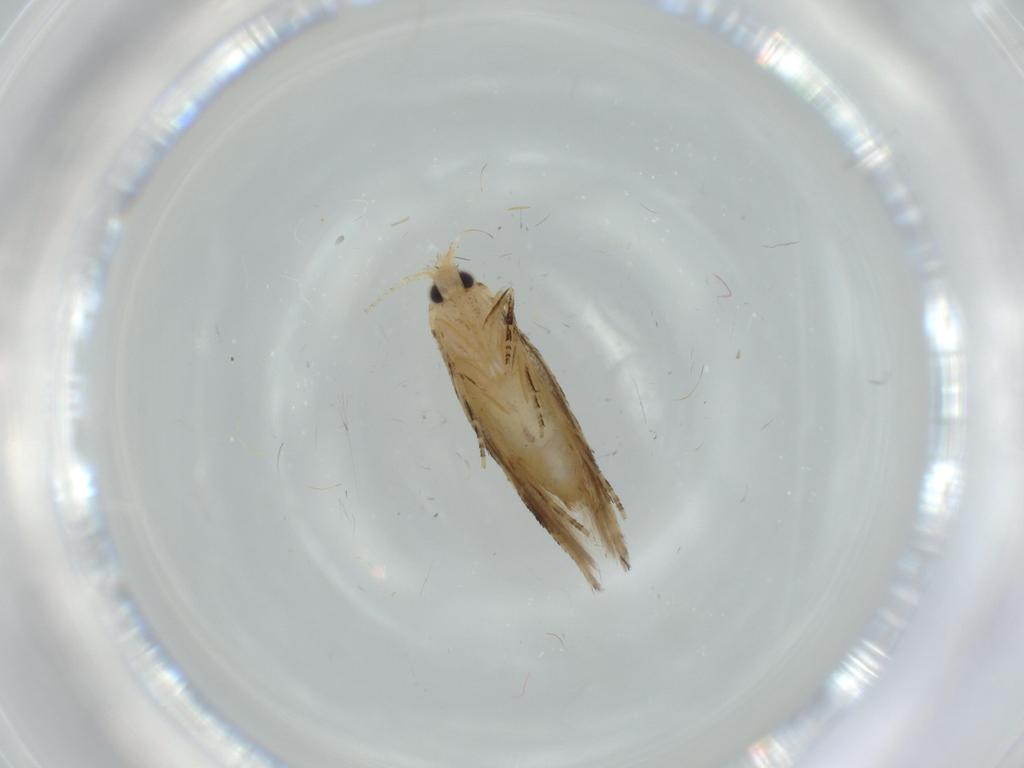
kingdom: Animalia
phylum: Arthropoda
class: Insecta
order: Lepidoptera
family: Bucculatricidae
